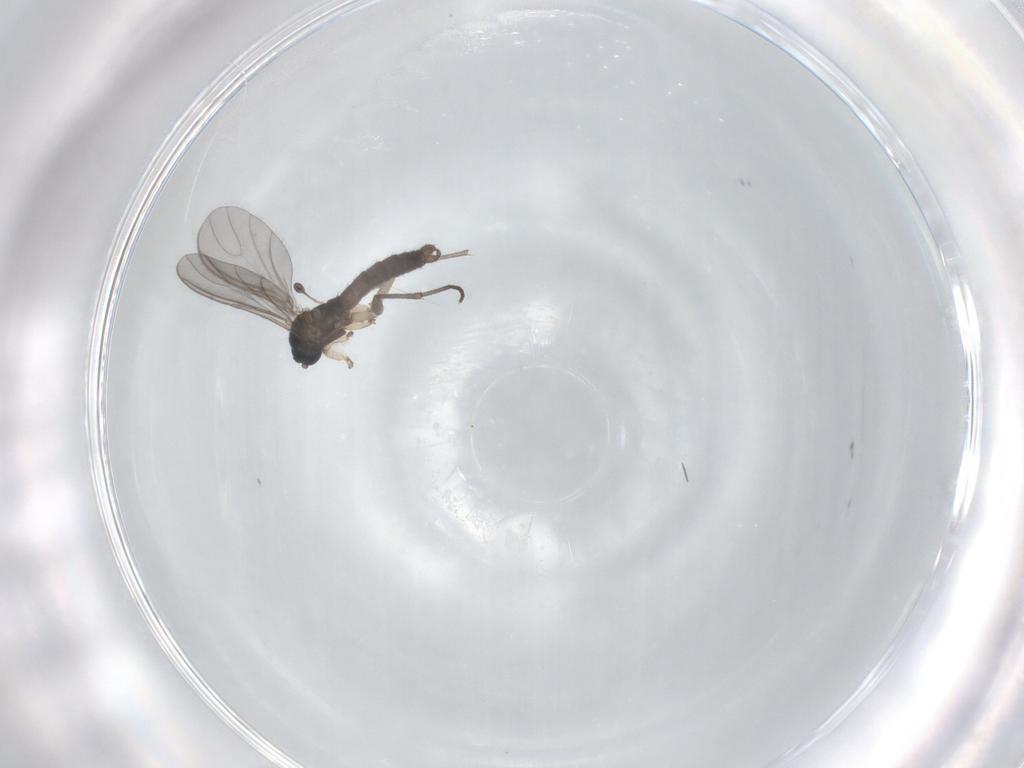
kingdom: Animalia
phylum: Arthropoda
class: Insecta
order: Diptera
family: Sciaridae
